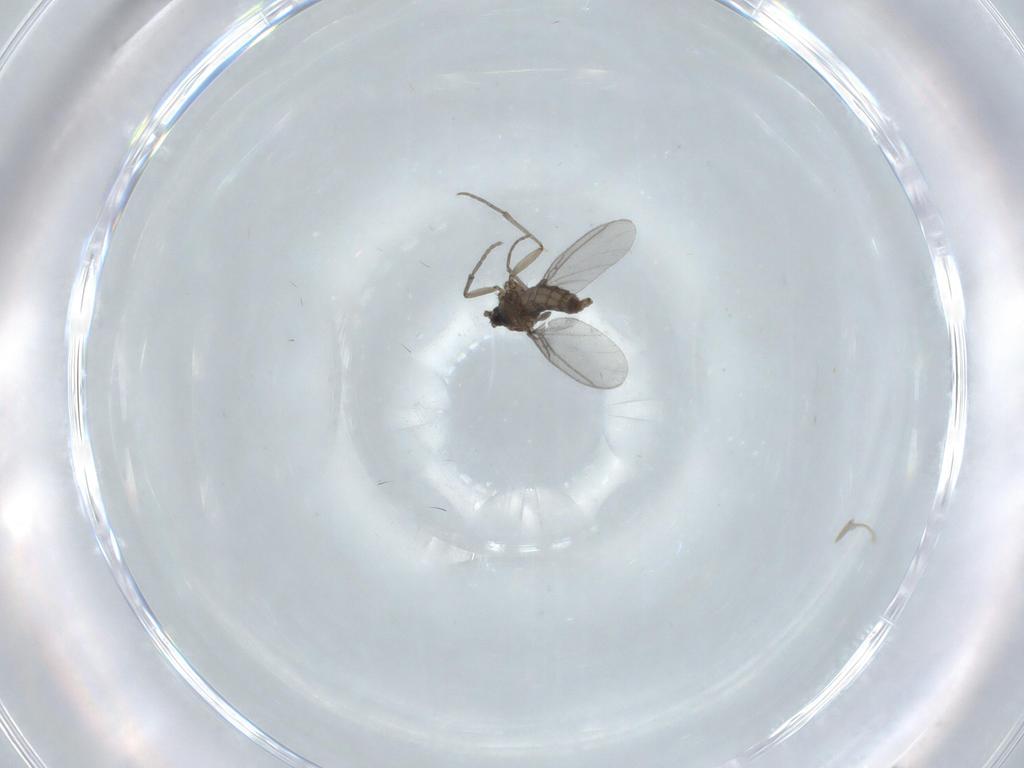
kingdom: Animalia
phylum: Arthropoda
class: Insecta
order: Diptera
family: Sciaridae
